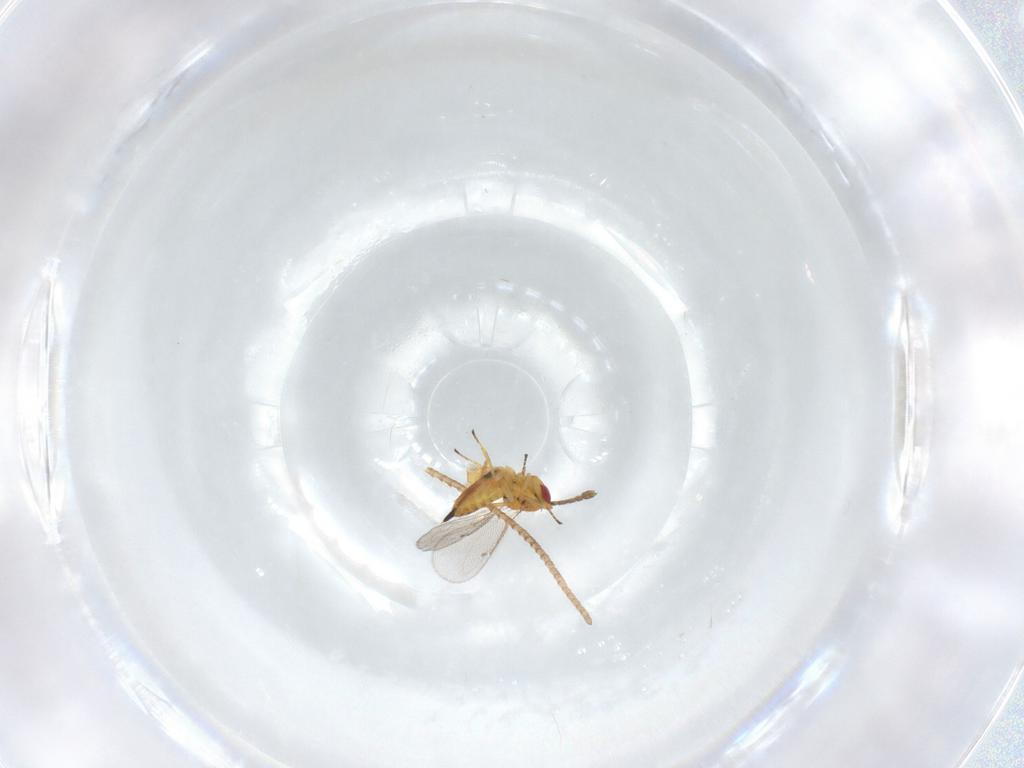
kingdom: Animalia
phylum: Arthropoda
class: Insecta
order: Hymenoptera
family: Eulophidae
